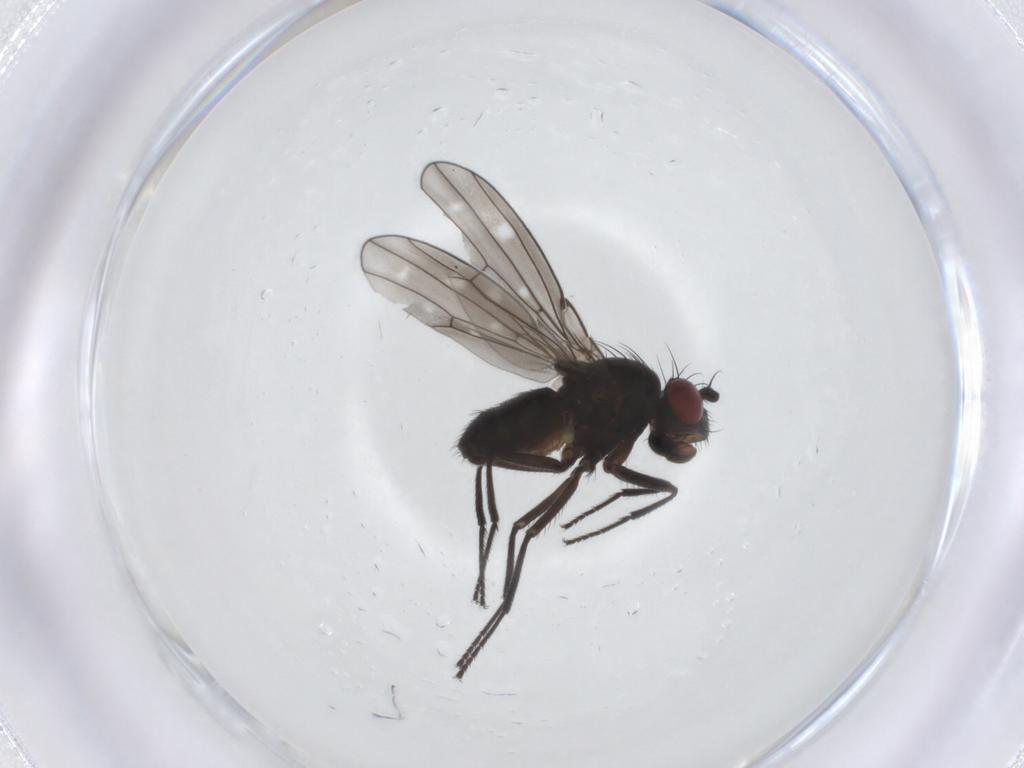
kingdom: Animalia
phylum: Arthropoda
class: Insecta
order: Diptera
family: Ephydridae
